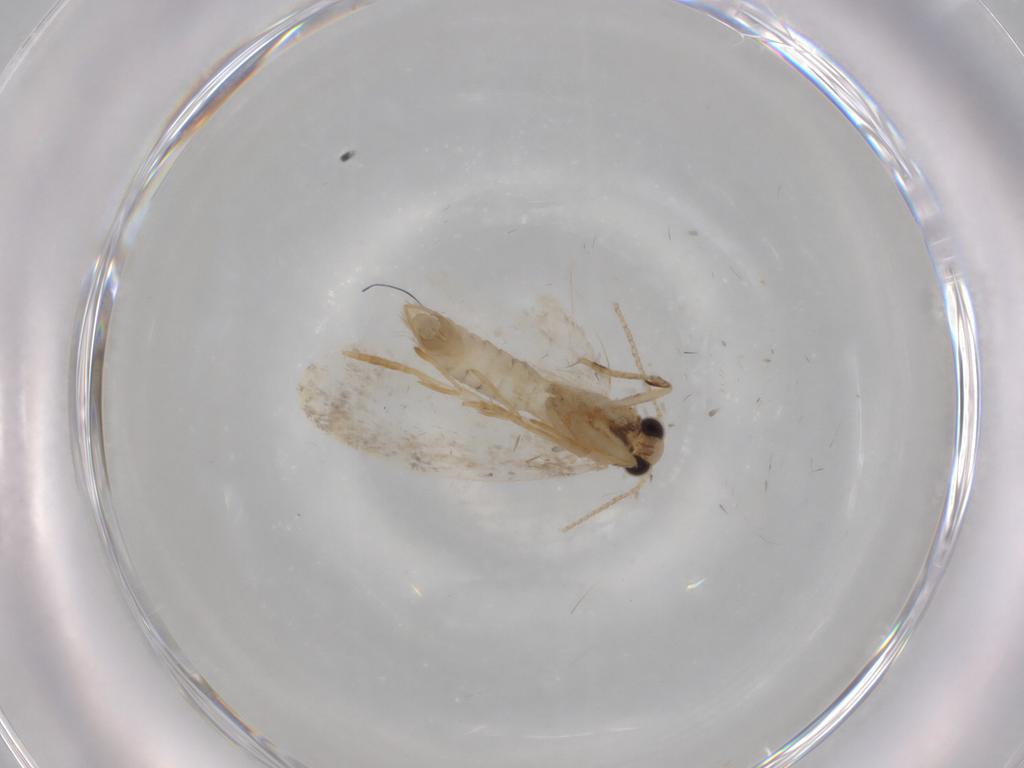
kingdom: Animalia
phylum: Arthropoda
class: Insecta
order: Lepidoptera
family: Psychidae
